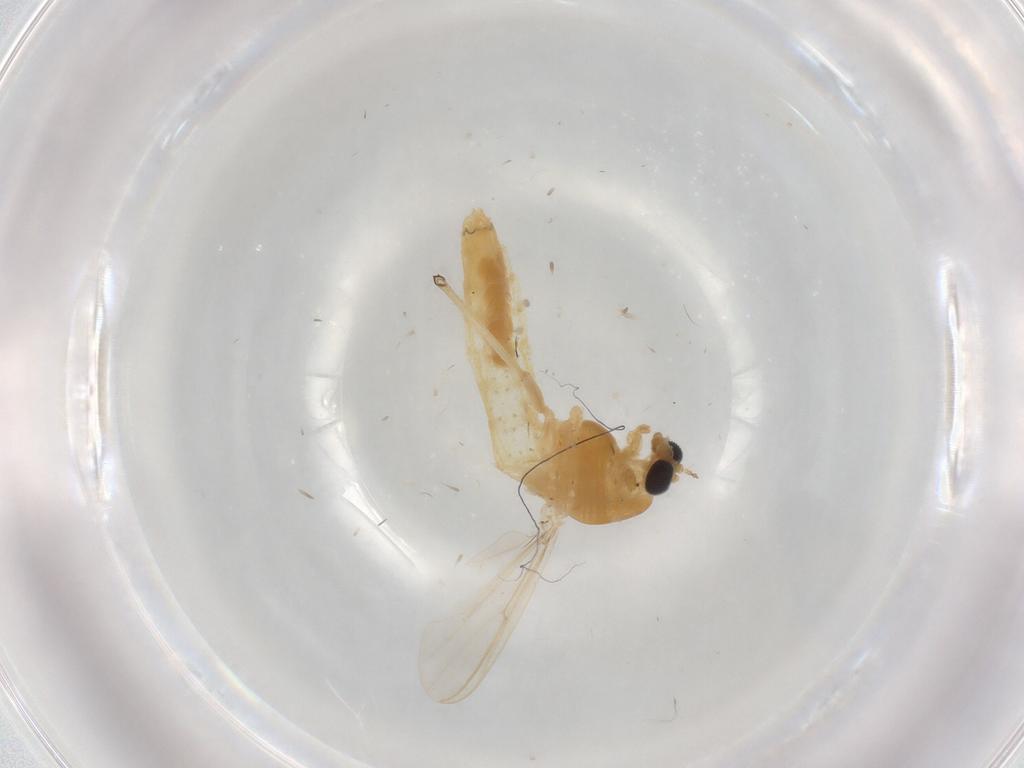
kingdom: Animalia
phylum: Arthropoda
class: Insecta
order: Diptera
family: Chironomidae
